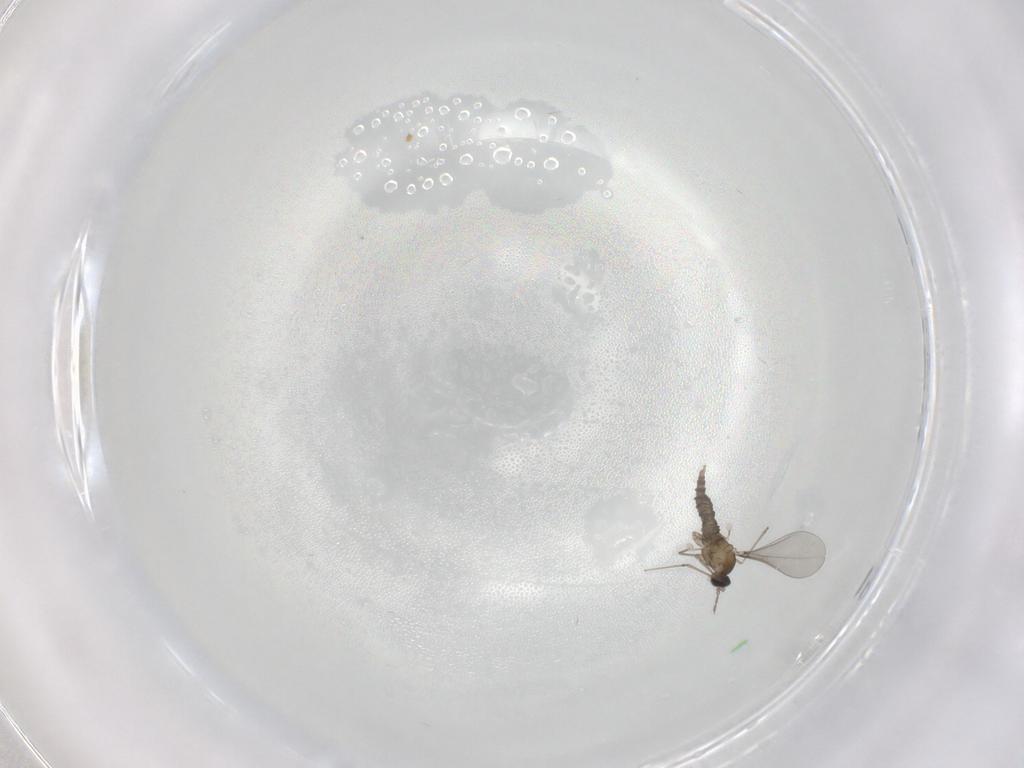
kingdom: Animalia
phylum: Arthropoda
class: Insecta
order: Diptera
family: Cecidomyiidae
